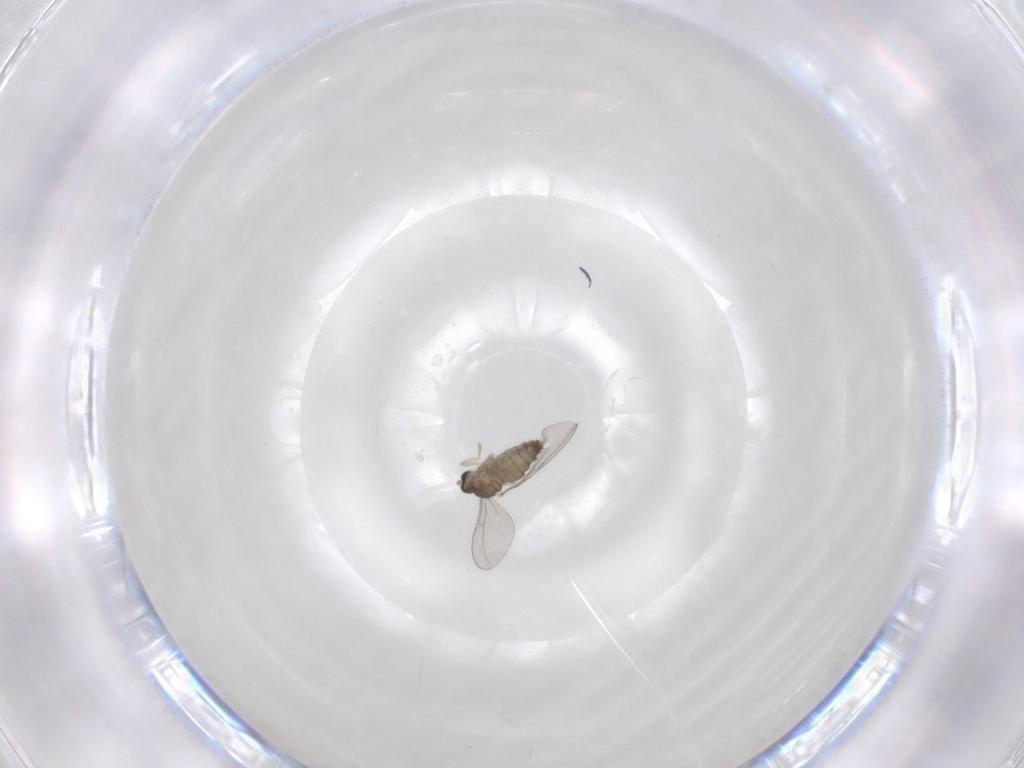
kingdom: Animalia
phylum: Arthropoda
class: Insecta
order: Diptera
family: Cecidomyiidae
